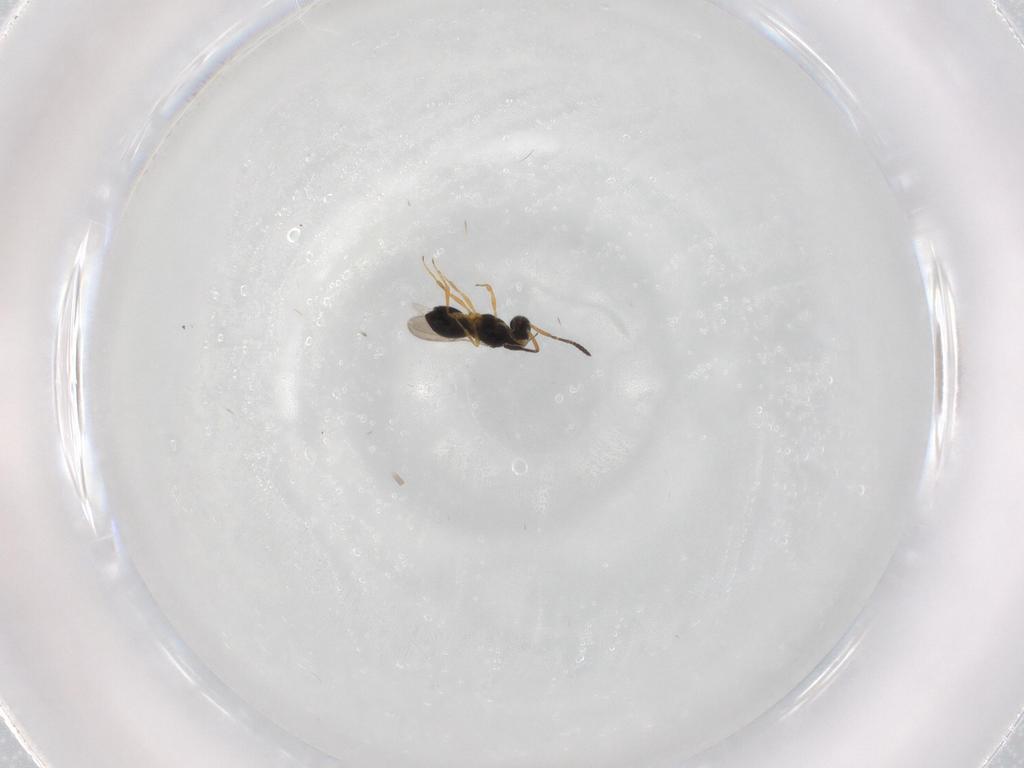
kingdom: Animalia
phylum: Arthropoda
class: Insecta
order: Hymenoptera
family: Scelionidae
